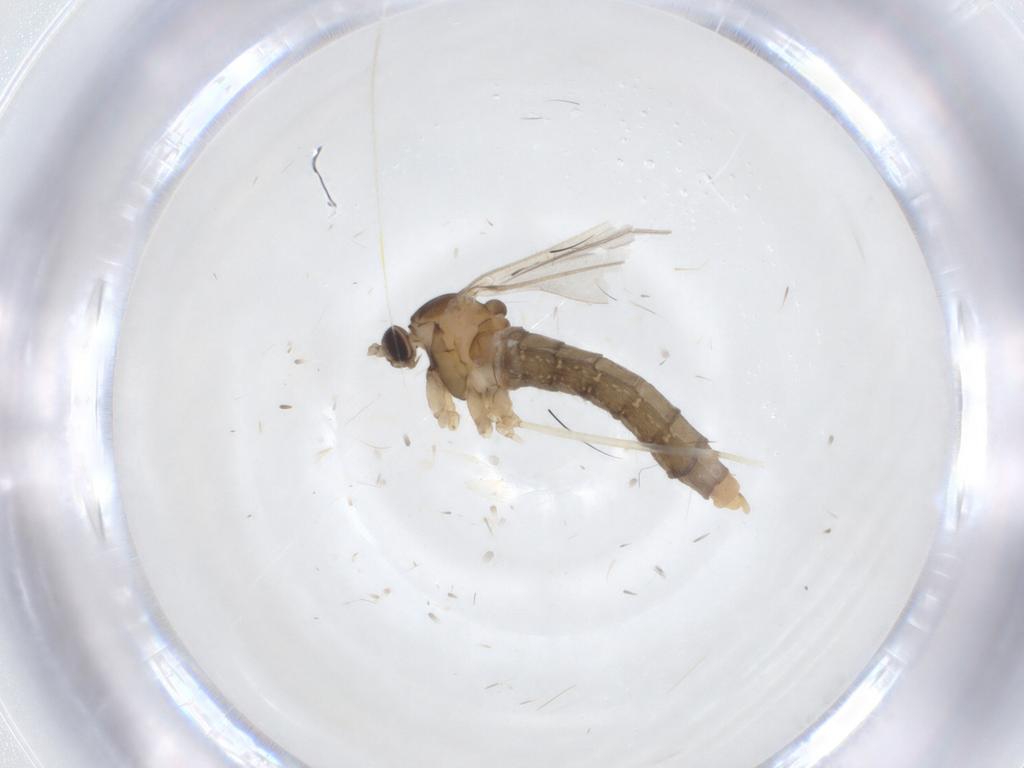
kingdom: Animalia
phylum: Arthropoda
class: Insecta
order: Diptera
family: Cecidomyiidae
